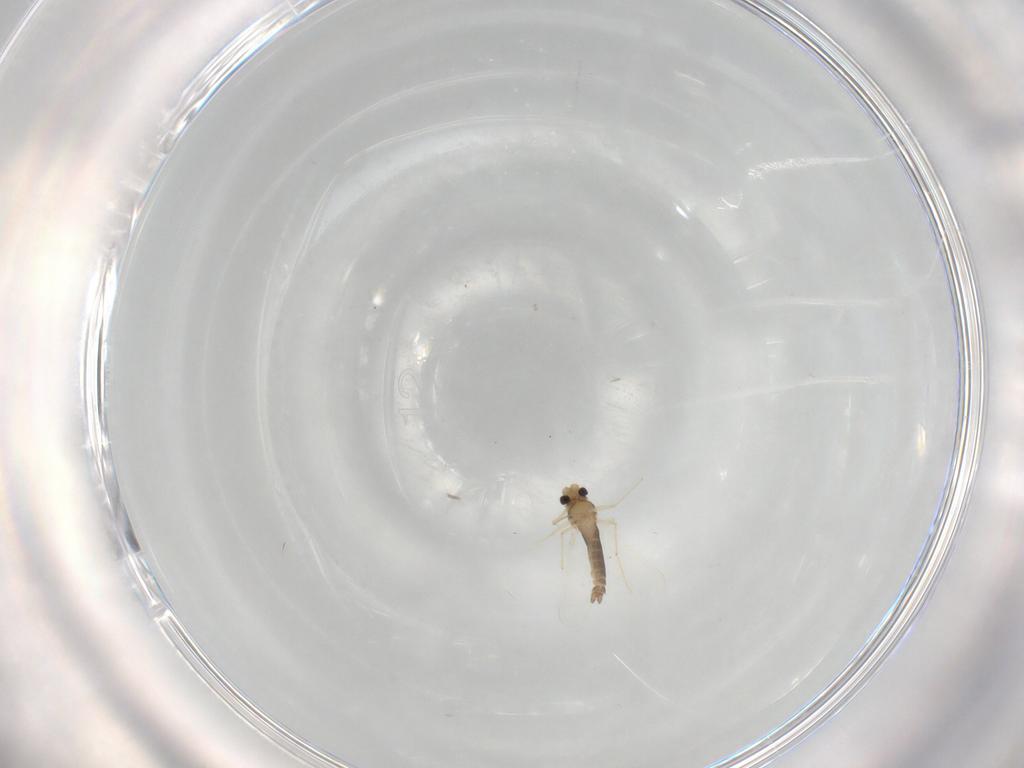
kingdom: Animalia
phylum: Arthropoda
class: Insecta
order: Diptera
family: Chironomidae
